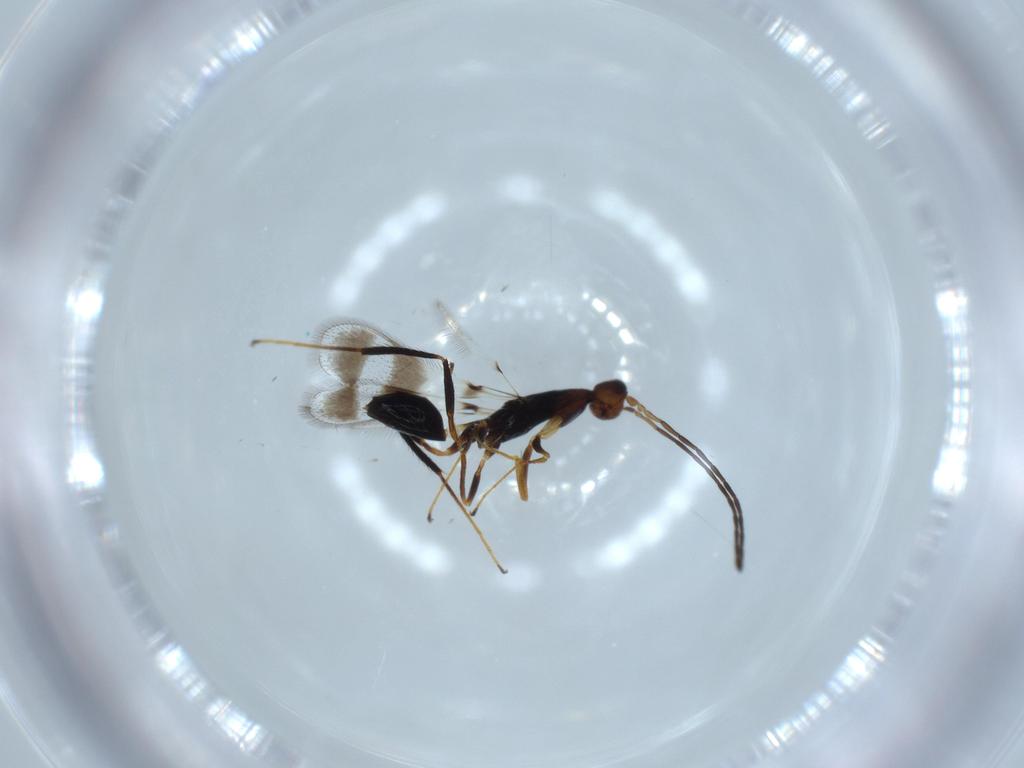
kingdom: Animalia
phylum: Arthropoda
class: Insecta
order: Hymenoptera
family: Mymaridae
